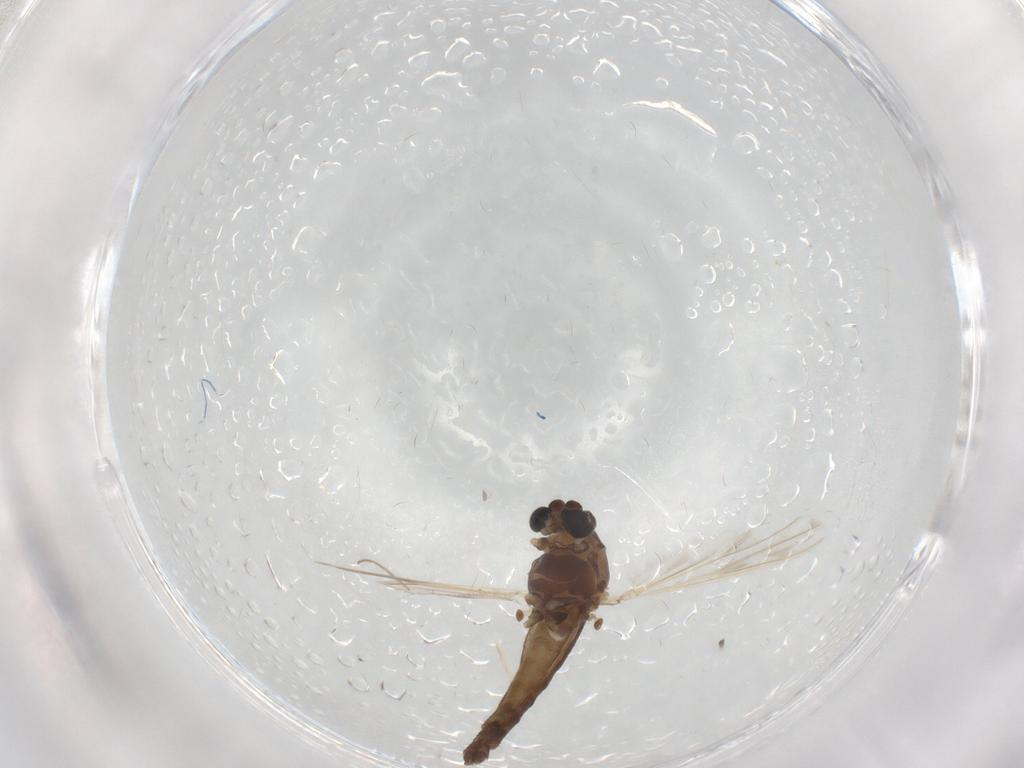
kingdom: Animalia
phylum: Arthropoda
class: Insecta
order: Diptera
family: Chironomidae
